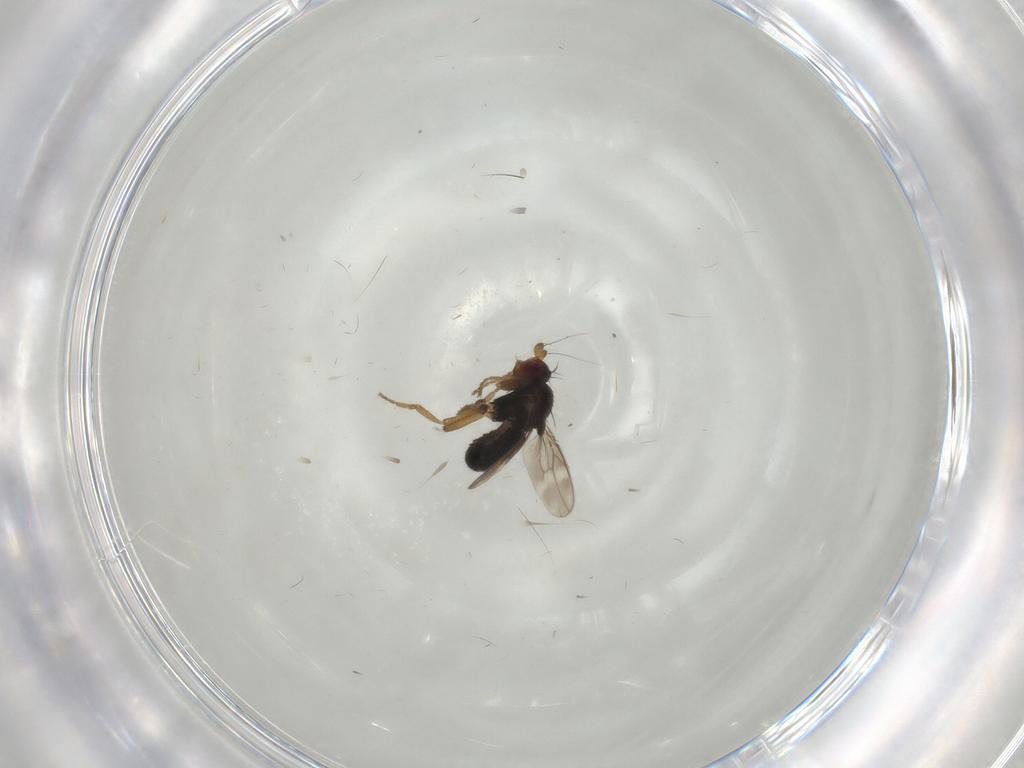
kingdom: Animalia
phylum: Arthropoda
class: Insecta
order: Diptera
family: Sphaeroceridae
